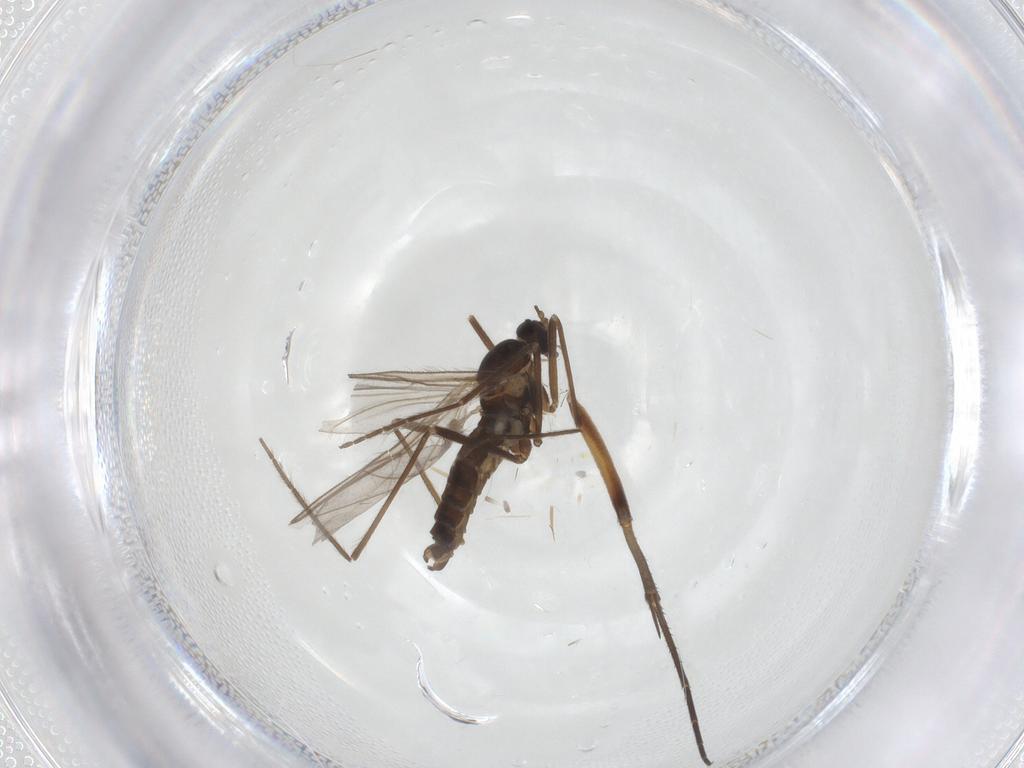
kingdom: Animalia
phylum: Arthropoda
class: Insecta
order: Diptera
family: Cecidomyiidae
